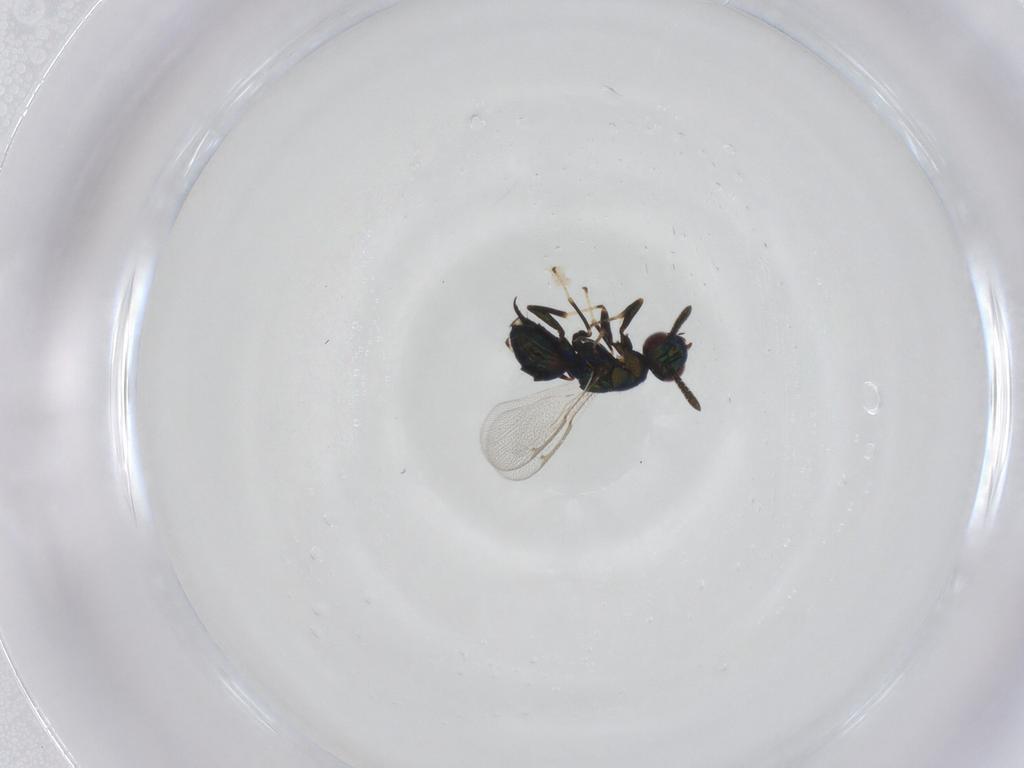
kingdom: Animalia
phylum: Arthropoda
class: Insecta
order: Hymenoptera
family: Torymidae
